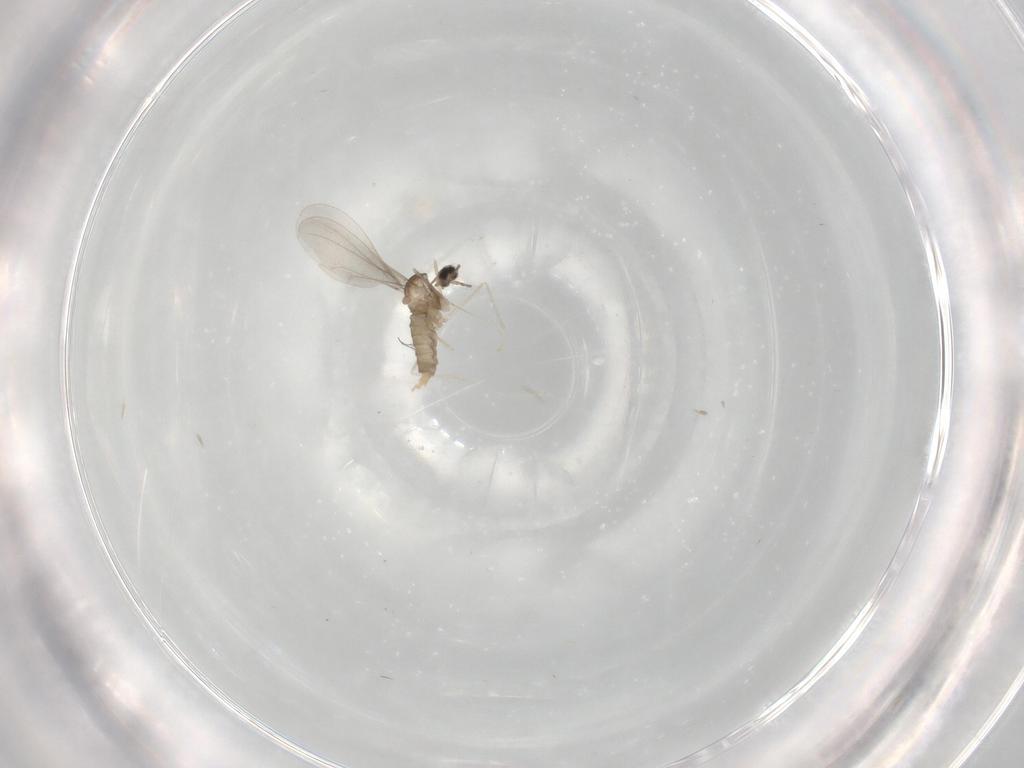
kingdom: Animalia
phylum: Arthropoda
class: Insecta
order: Diptera
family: Cecidomyiidae
